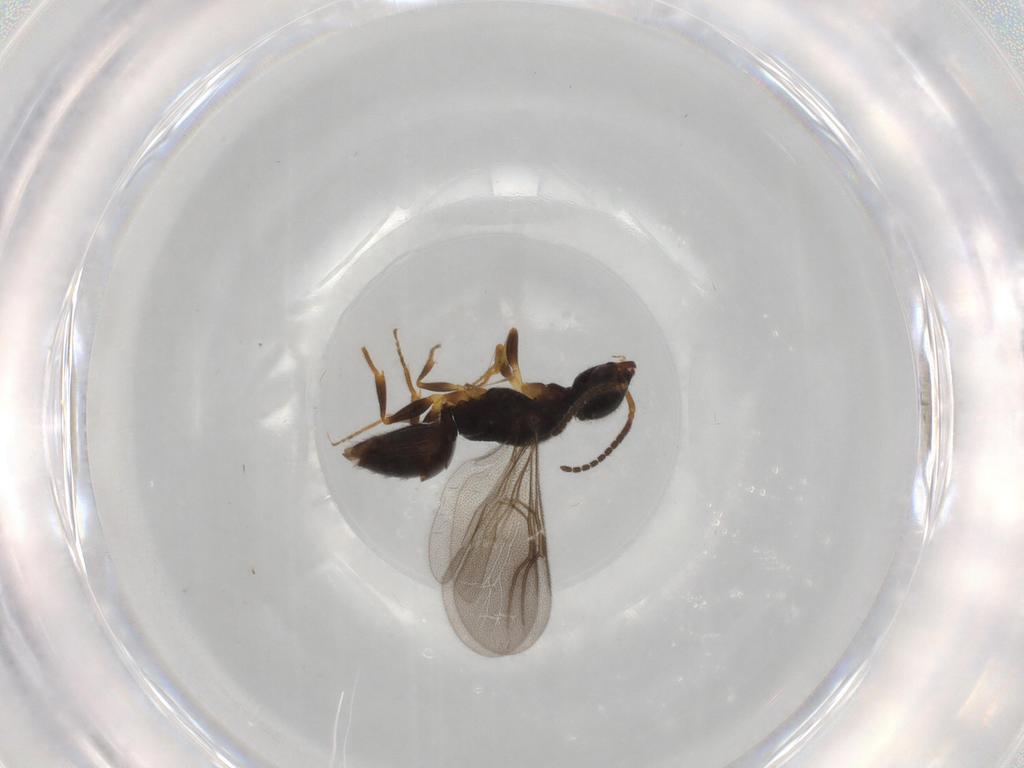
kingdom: Animalia
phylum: Arthropoda
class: Insecta
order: Hymenoptera
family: Bethylidae
